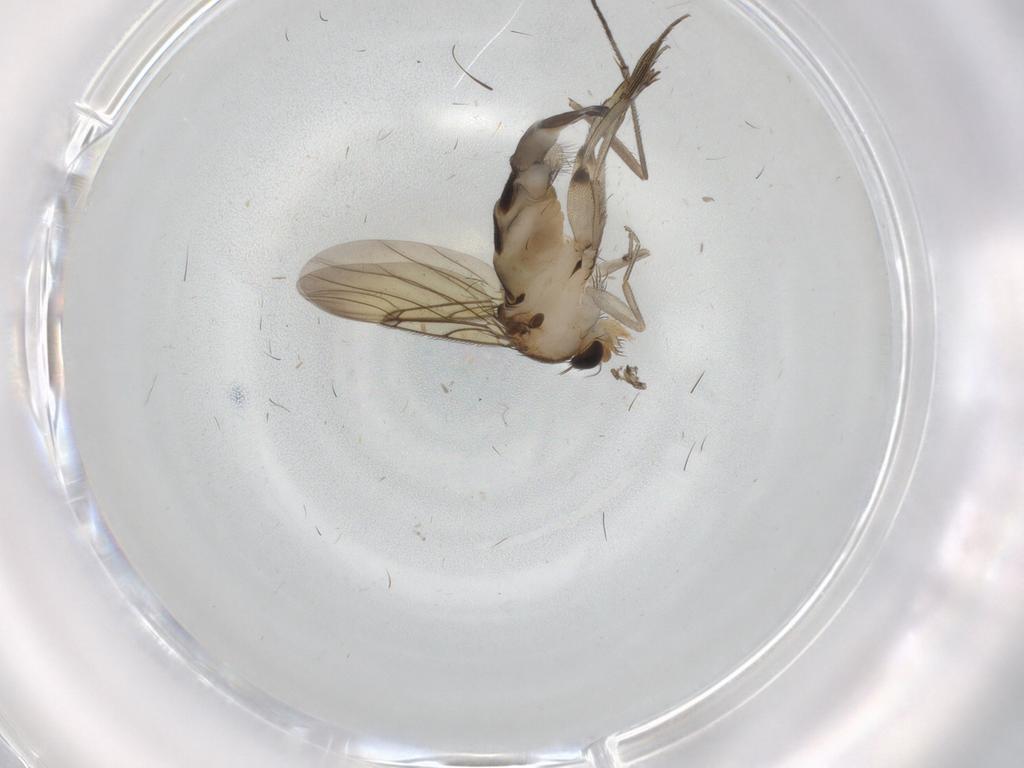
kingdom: Animalia
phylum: Arthropoda
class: Insecta
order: Diptera
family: Phoridae
